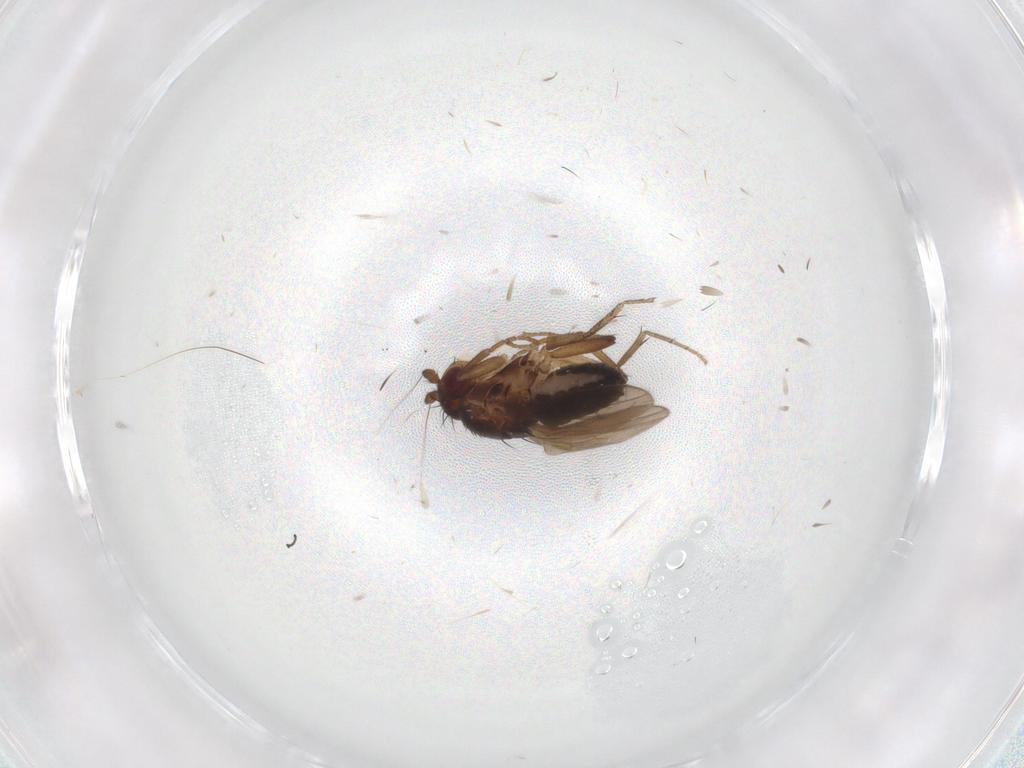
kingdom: Animalia
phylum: Arthropoda
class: Insecta
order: Diptera
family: Sphaeroceridae
